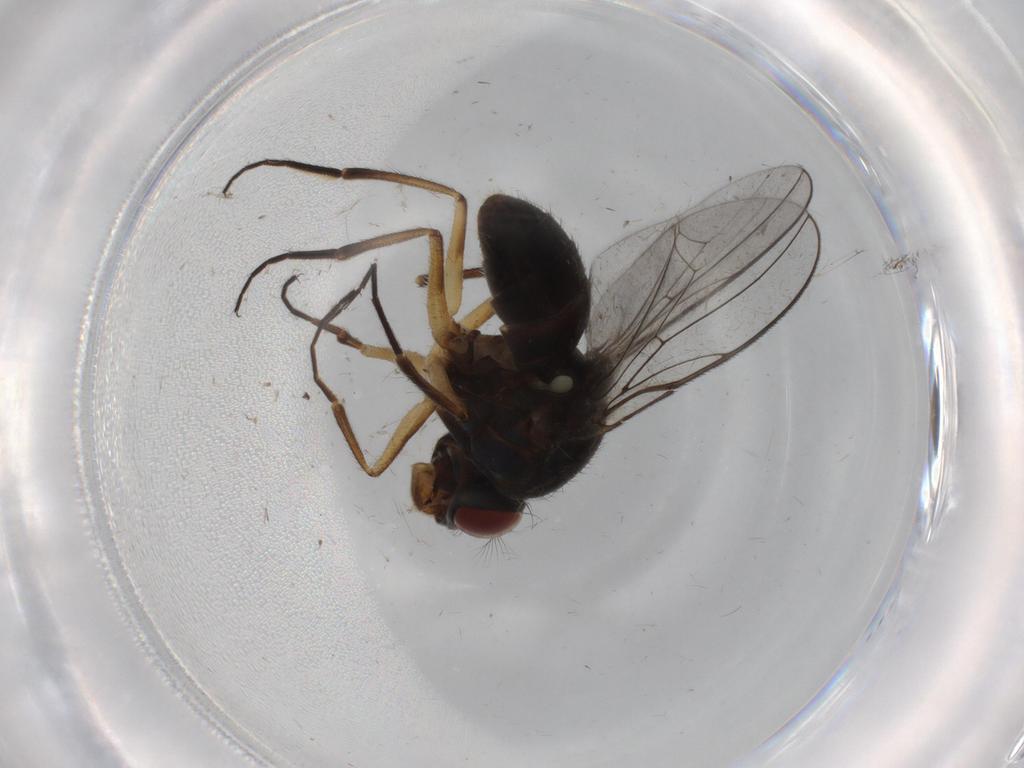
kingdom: Animalia
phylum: Arthropoda
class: Insecta
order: Diptera
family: Ephydridae
